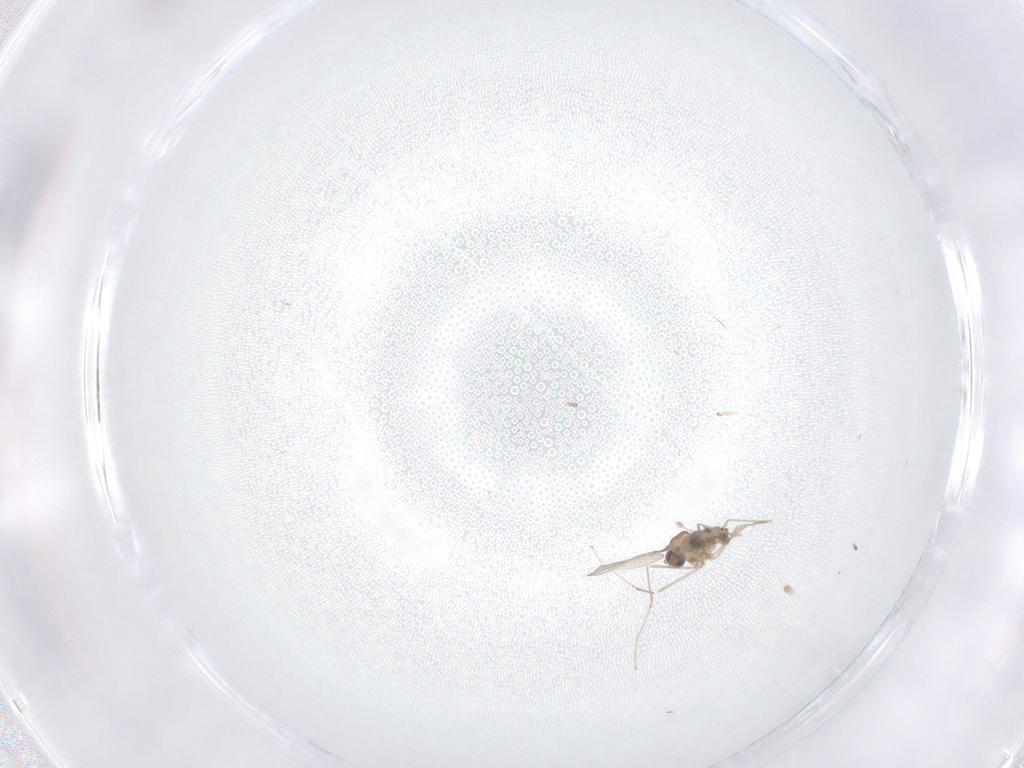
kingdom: Animalia
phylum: Arthropoda
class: Insecta
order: Diptera
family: Cecidomyiidae
